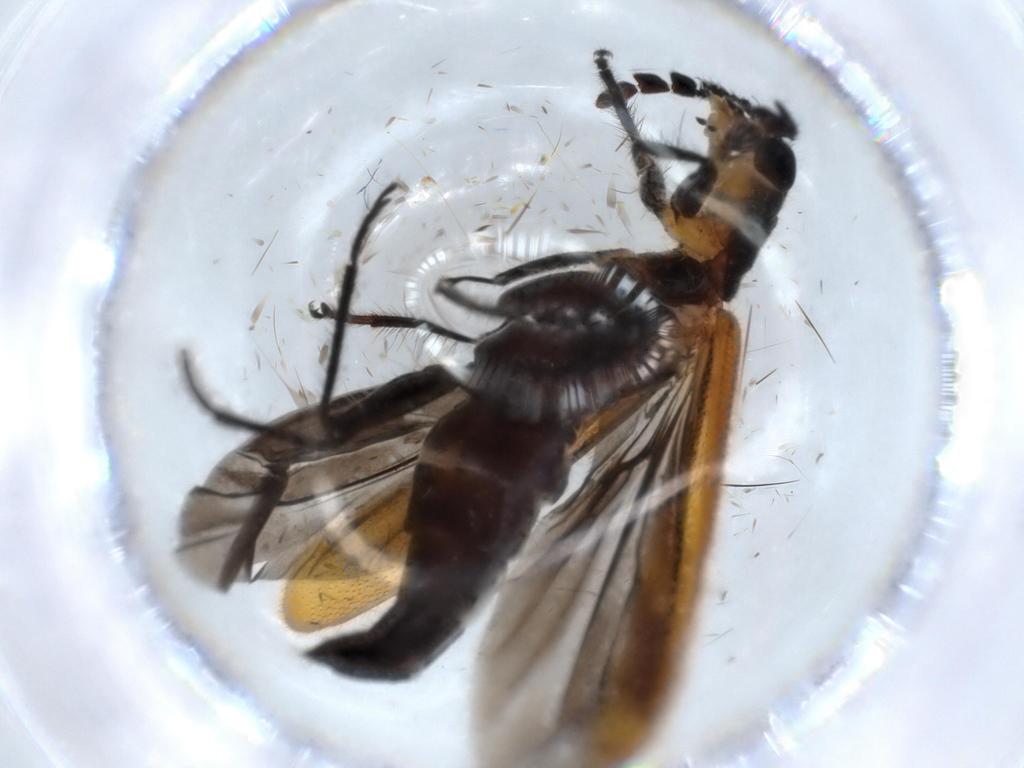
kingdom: Animalia
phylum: Arthropoda
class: Insecta
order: Coleoptera
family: Cleridae
